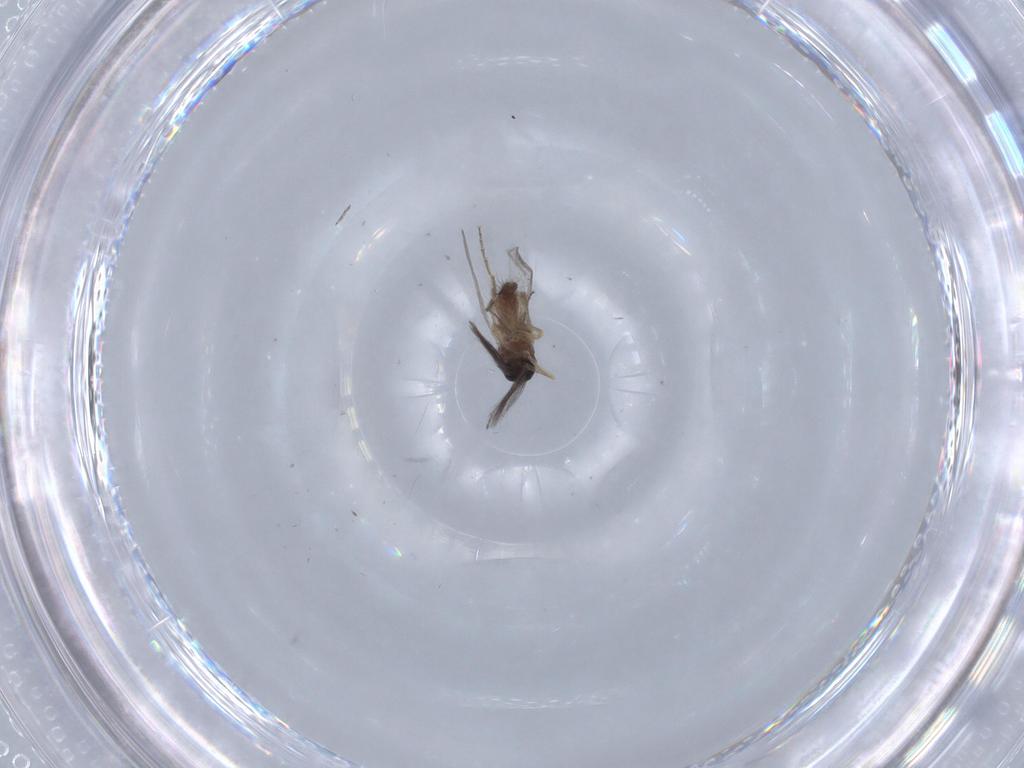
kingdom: Animalia
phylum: Arthropoda
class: Insecta
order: Diptera
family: Ceratopogonidae
